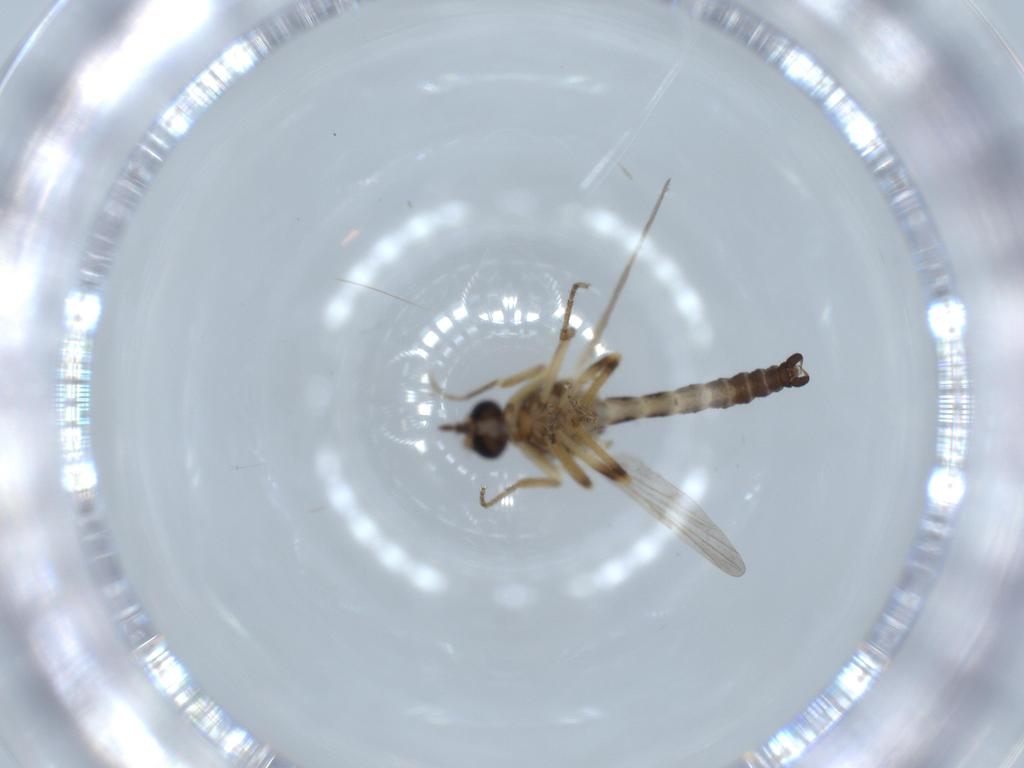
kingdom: Animalia
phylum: Arthropoda
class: Insecta
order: Diptera
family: Ceratopogonidae
